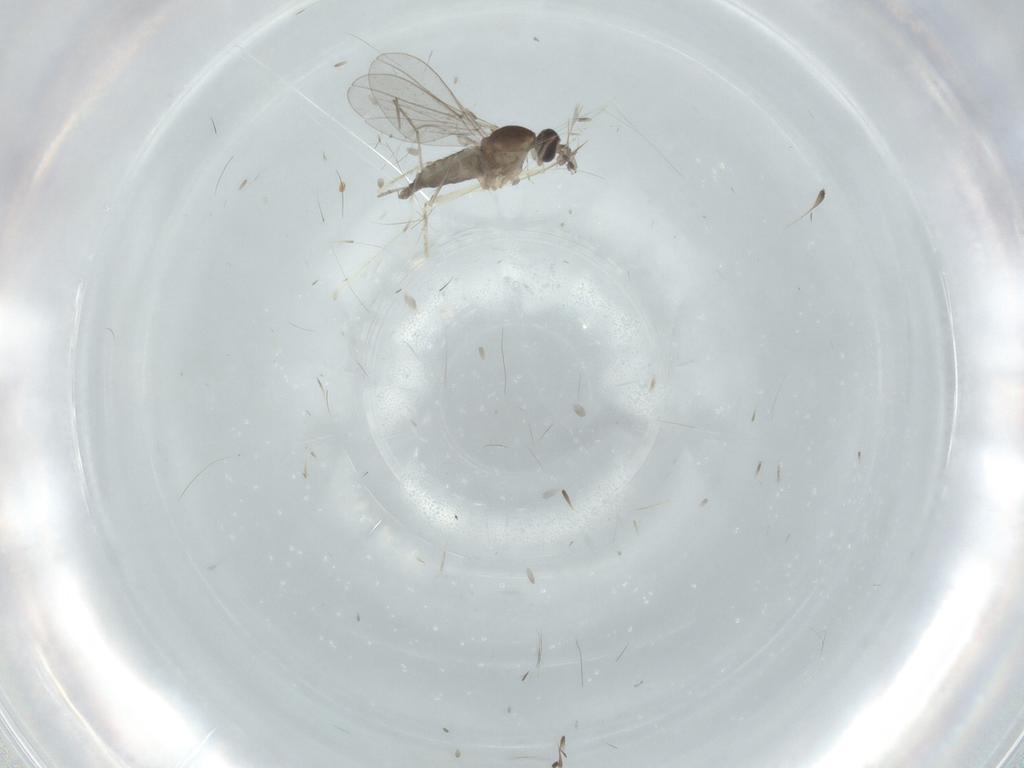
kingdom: Animalia
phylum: Arthropoda
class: Insecta
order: Diptera
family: Cecidomyiidae
